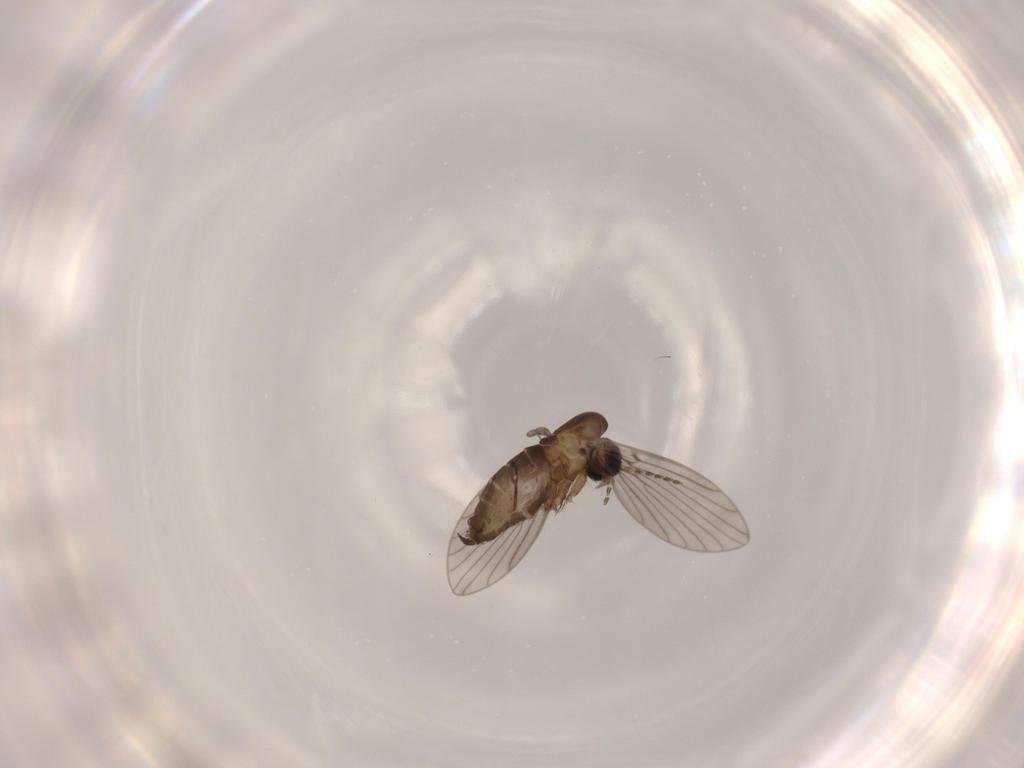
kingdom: Animalia
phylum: Arthropoda
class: Insecta
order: Diptera
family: Psychodidae
